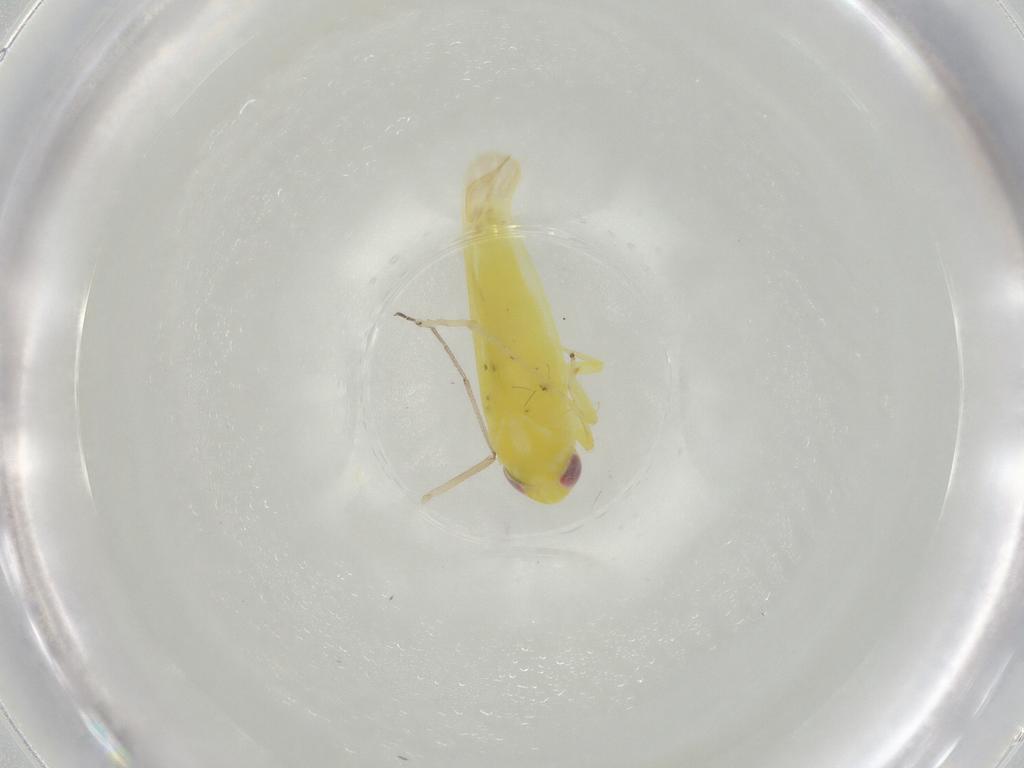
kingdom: Animalia
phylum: Arthropoda
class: Insecta
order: Hemiptera
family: Cicadellidae
